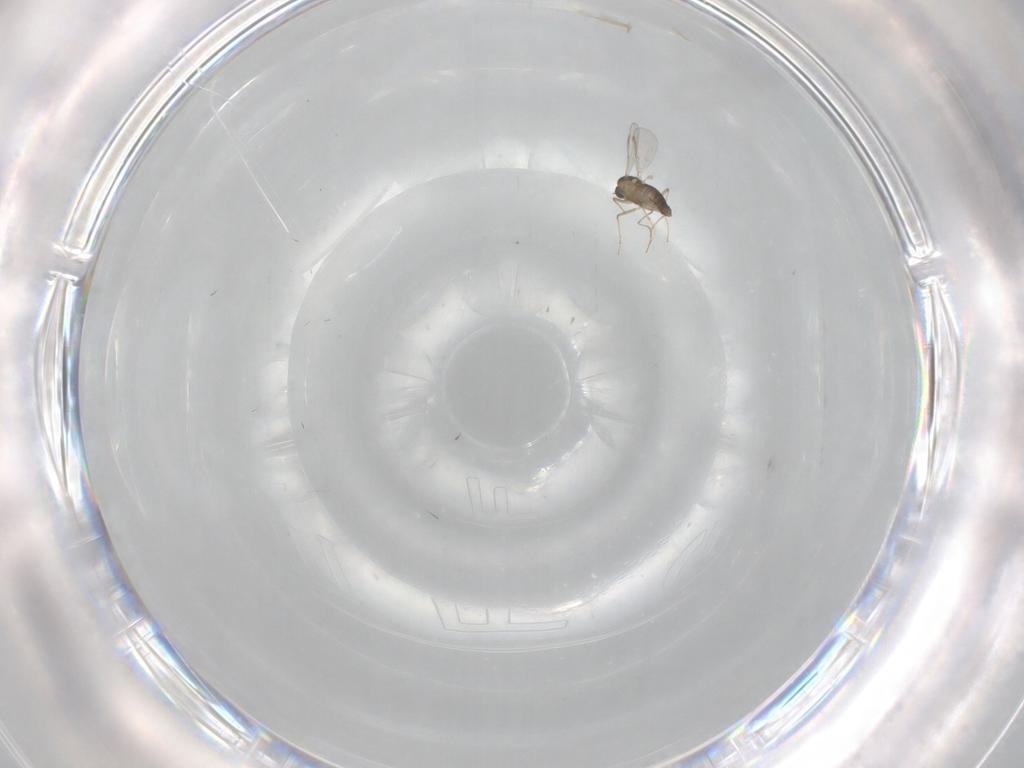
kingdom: Animalia
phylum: Arthropoda
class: Insecta
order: Diptera
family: Chironomidae
